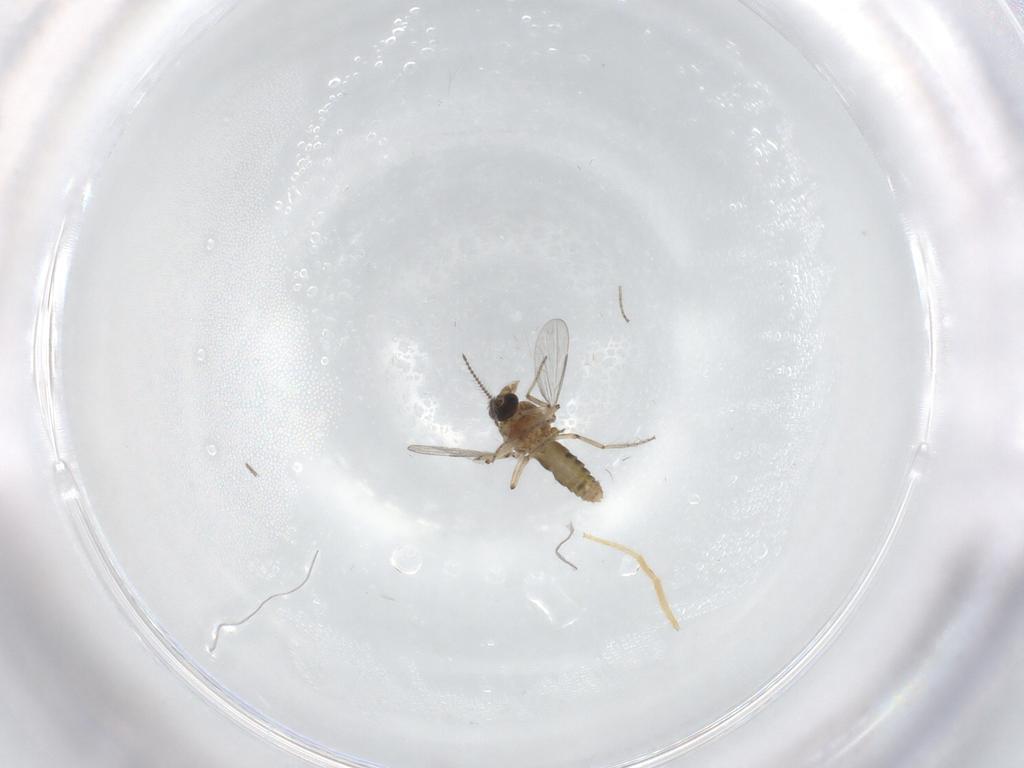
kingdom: Animalia
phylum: Arthropoda
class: Insecta
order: Diptera
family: Ceratopogonidae
